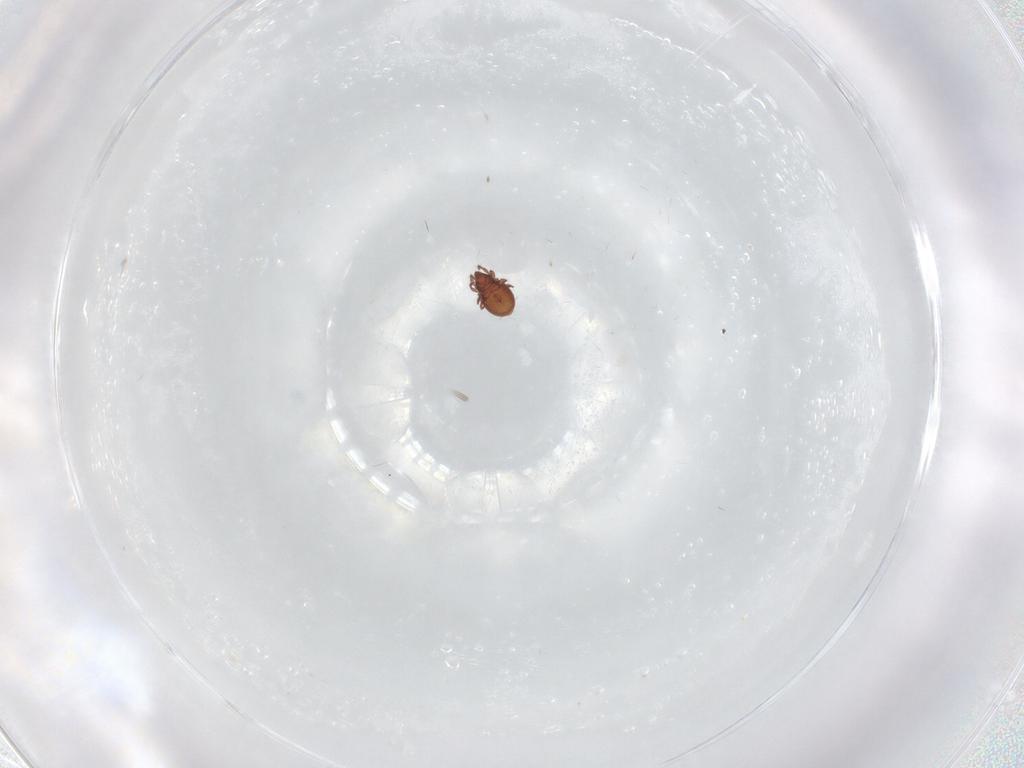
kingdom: Animalia
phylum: Arthropoda
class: Arachnida
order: Sarcoptiformes
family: Ceratoppiidae
